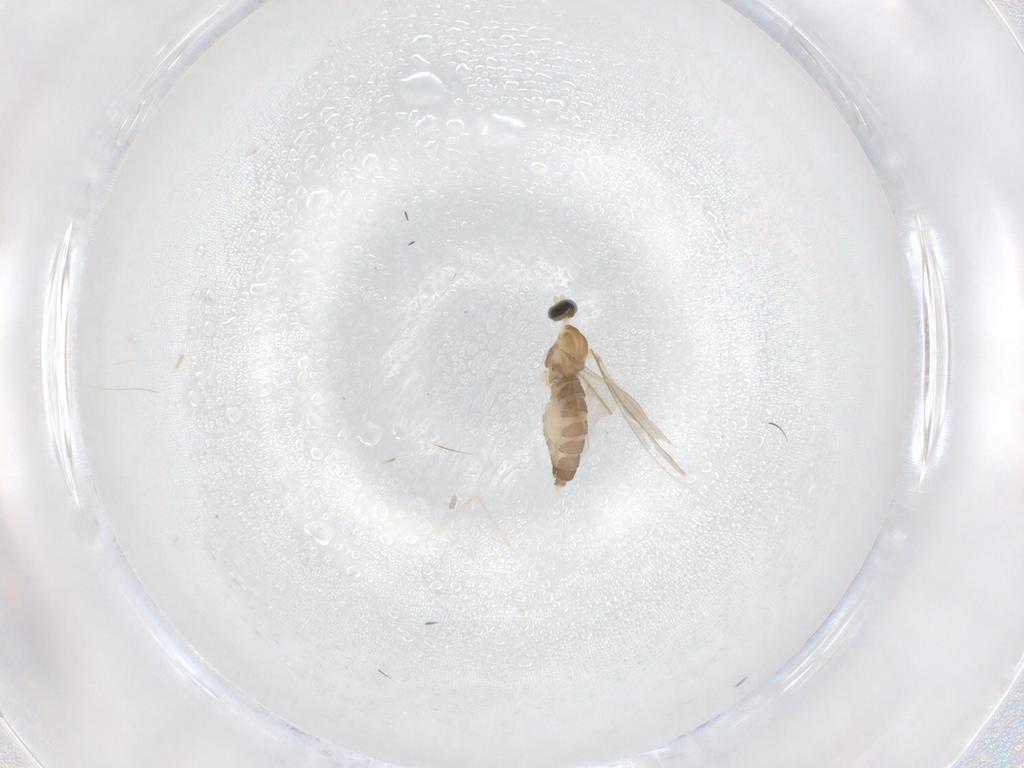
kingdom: Animalia
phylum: Arthropoda
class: Insecta
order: Diptera
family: Cecidomyiidae
